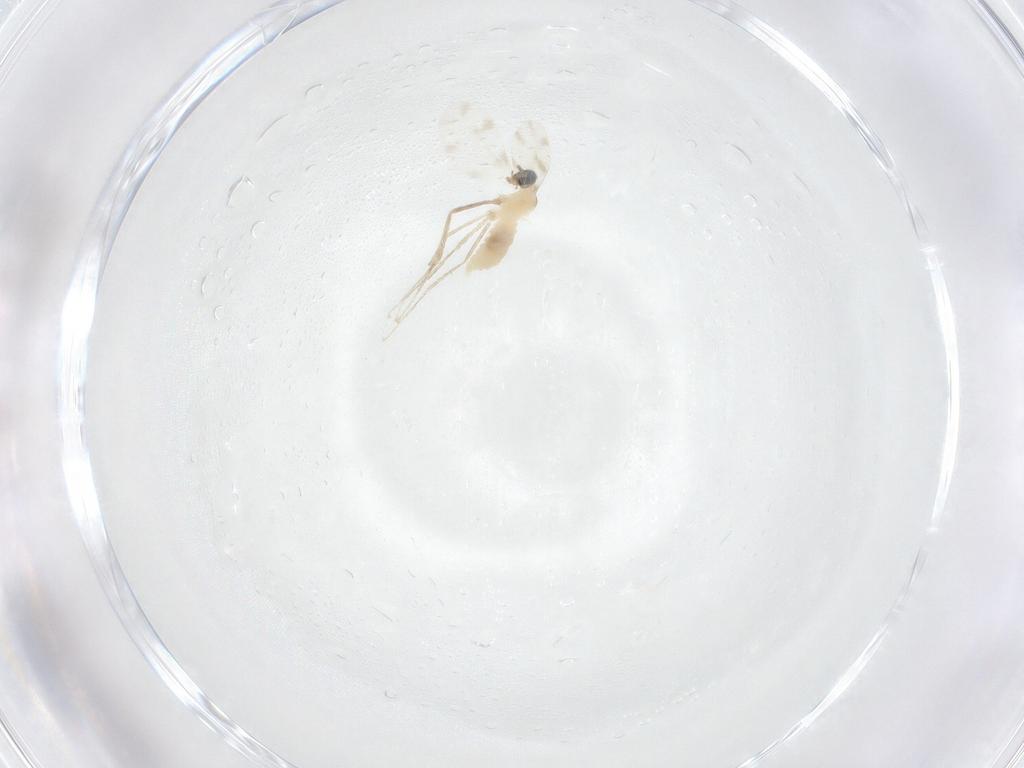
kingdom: Animalia
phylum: Arthropoda
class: Insecta
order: Diptera
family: Cecidomyiidae
